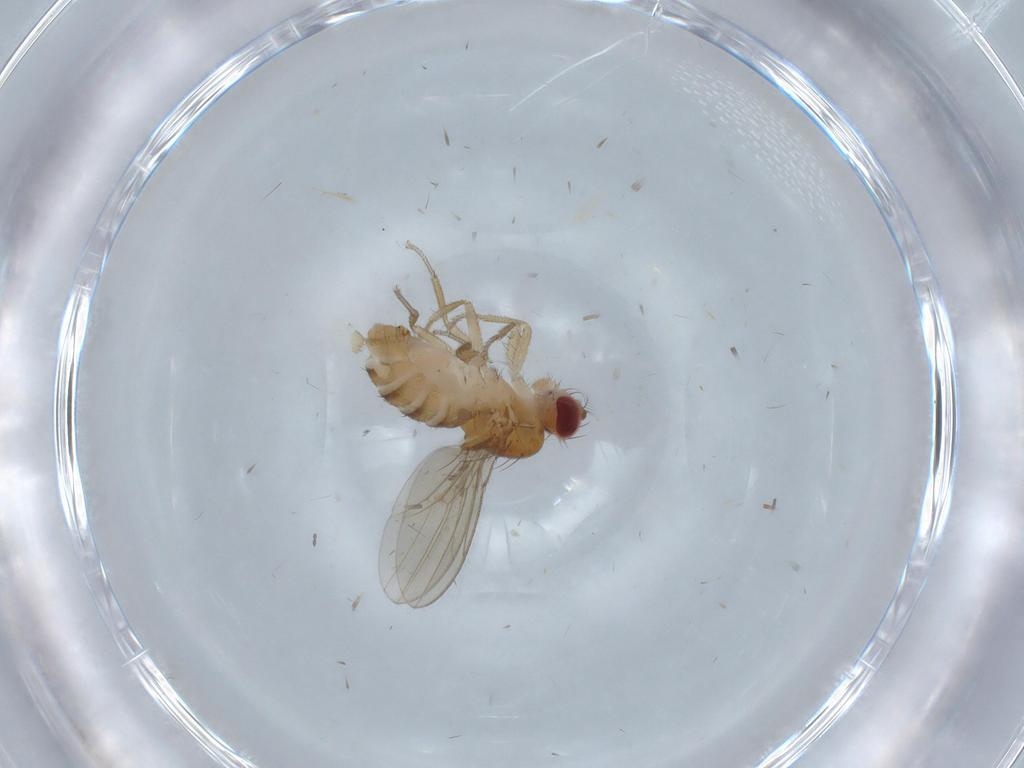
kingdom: Animalia
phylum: Arthropoda
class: Insecta
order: Diptera
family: Drosophilidae
